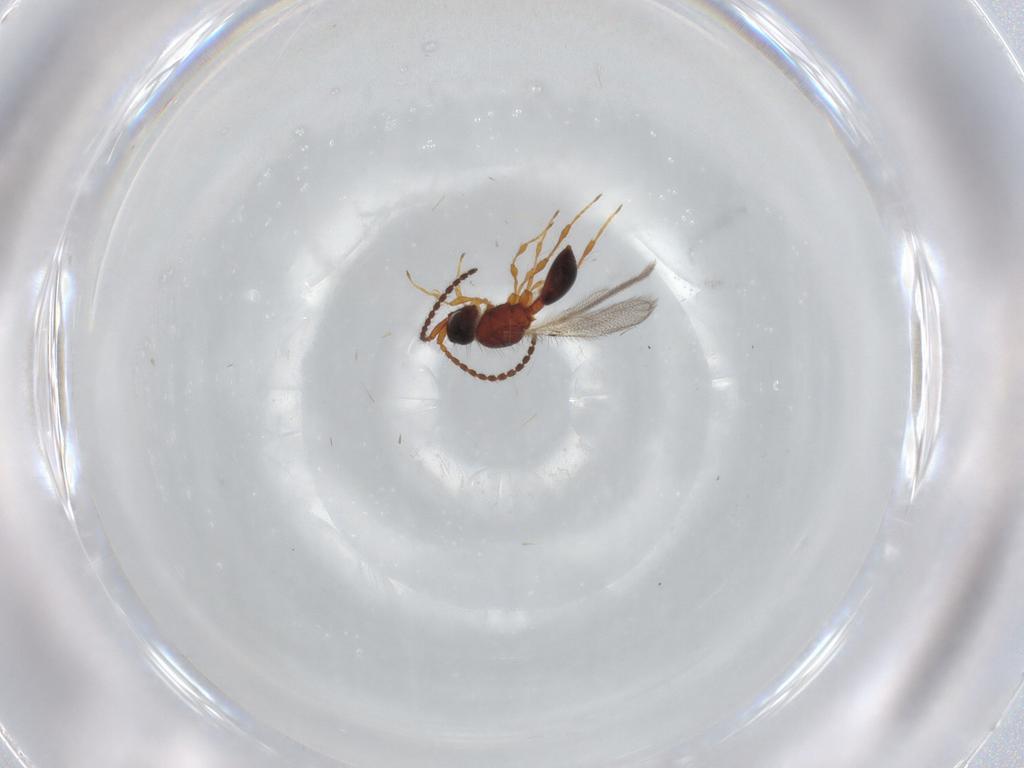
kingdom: Animalia
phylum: Arthropoda
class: Insecta
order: Hymenoptera
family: Diapriidae
